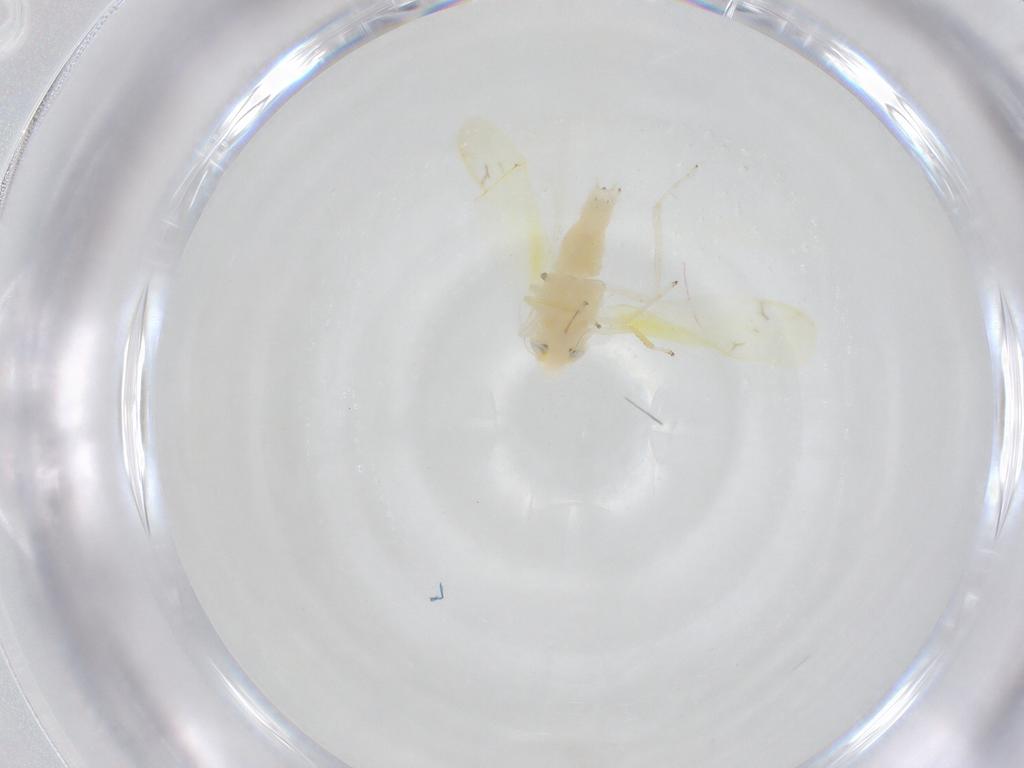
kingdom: Animalia
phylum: Arthropoda
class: Insecta
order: Hemiptera
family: Cicadellidae
